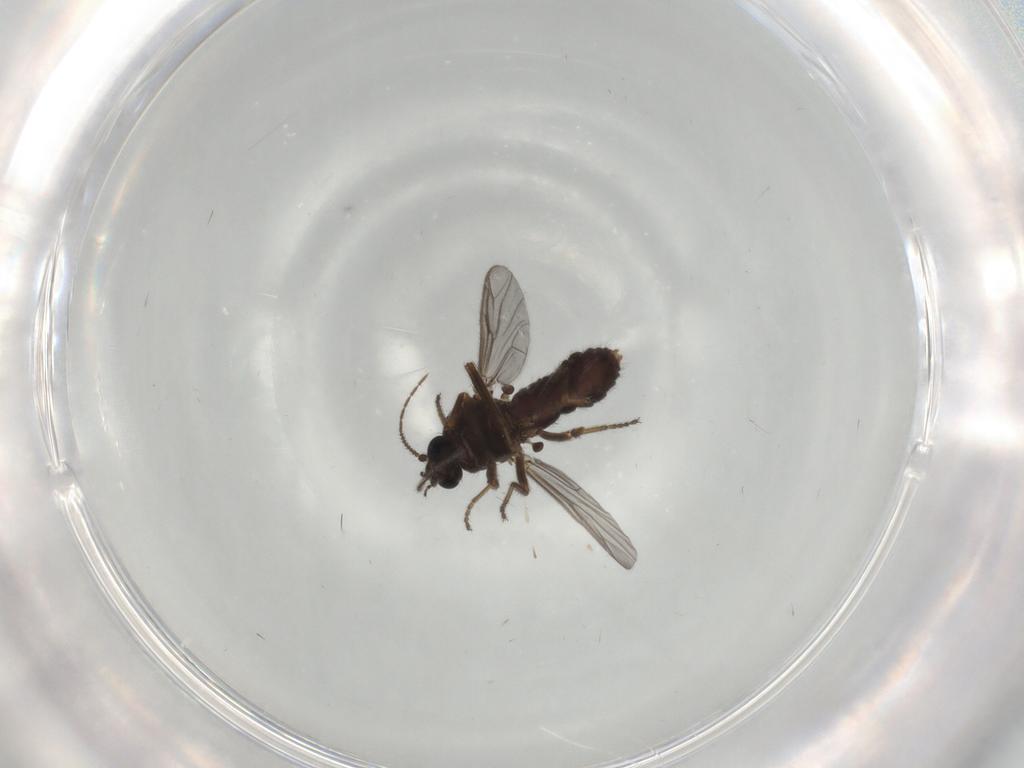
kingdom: Animalia
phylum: Arthropoda
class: Insecta
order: Diptera
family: Ceratopogonidae
